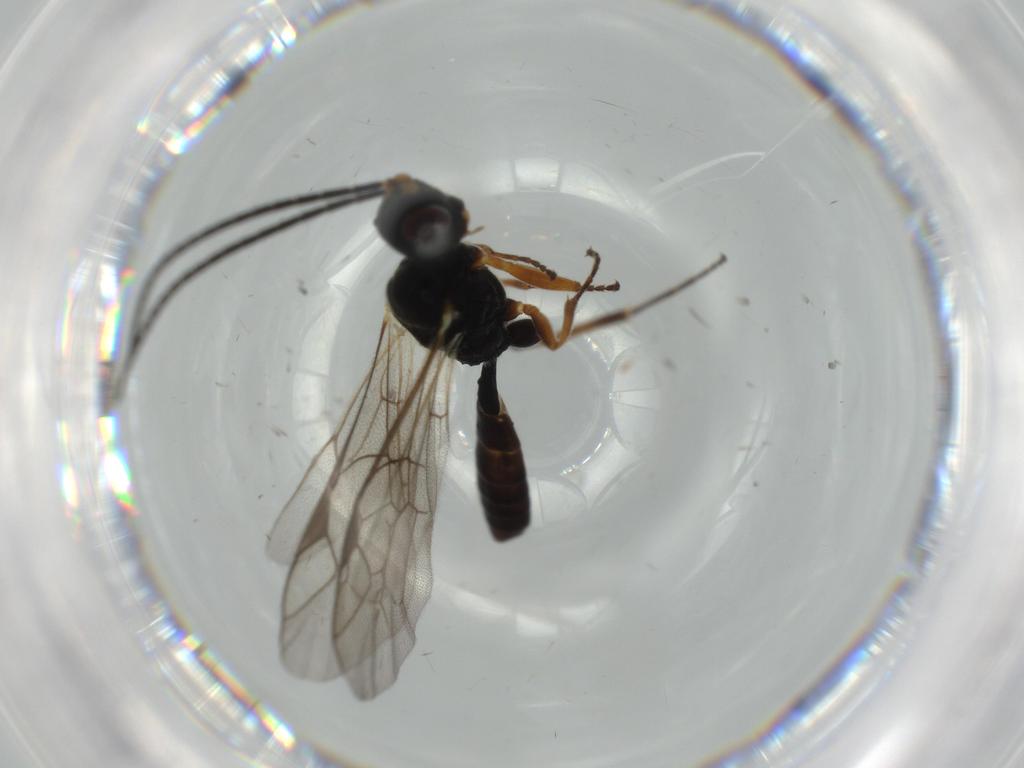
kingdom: Animalia
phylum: Arthropoda
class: Insecta
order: Hymenoptera
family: Ichneumonidae
